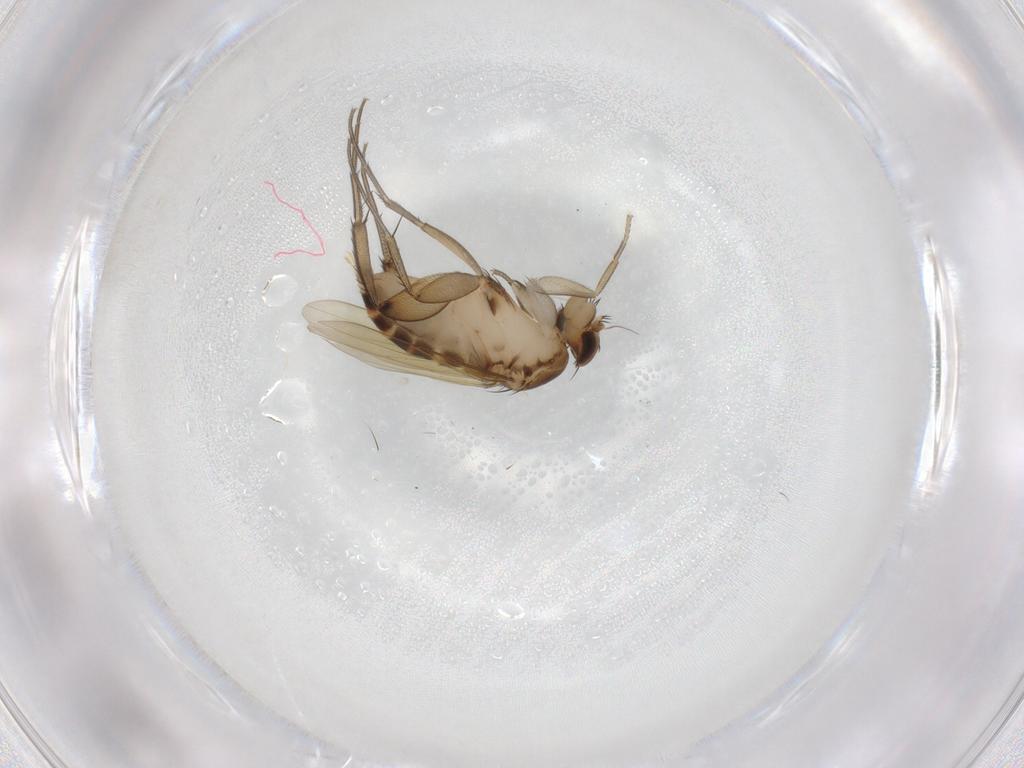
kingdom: Animalia
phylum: Arthropoda
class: Insecta
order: Diptera
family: Phoridae
